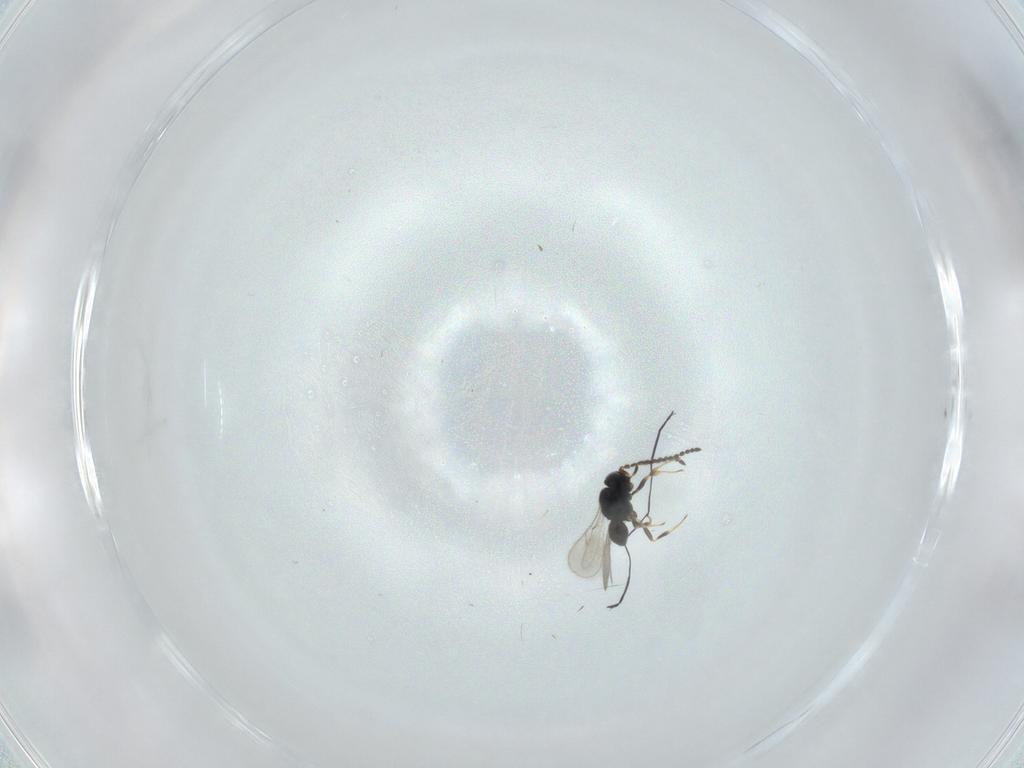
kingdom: Animalia
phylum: Arthropoda
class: Insecta
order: Hymenoptera
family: Scelionidae
